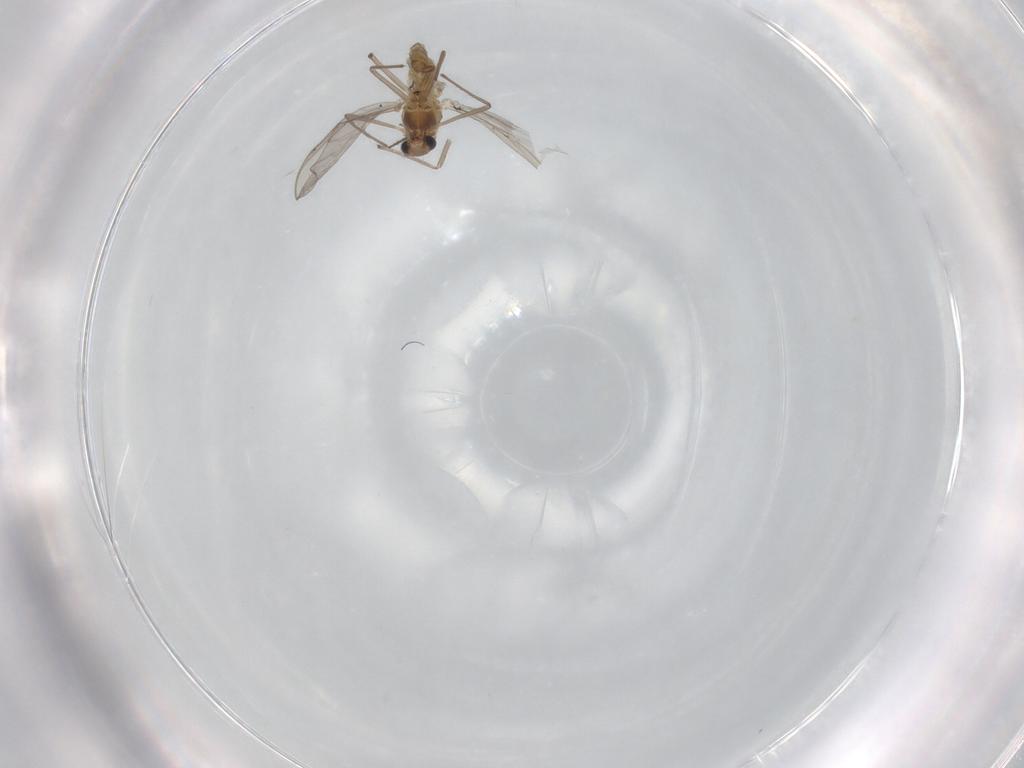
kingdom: Animalia
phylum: Arthropoda
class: Insecta
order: Diptera
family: Chironomidae
